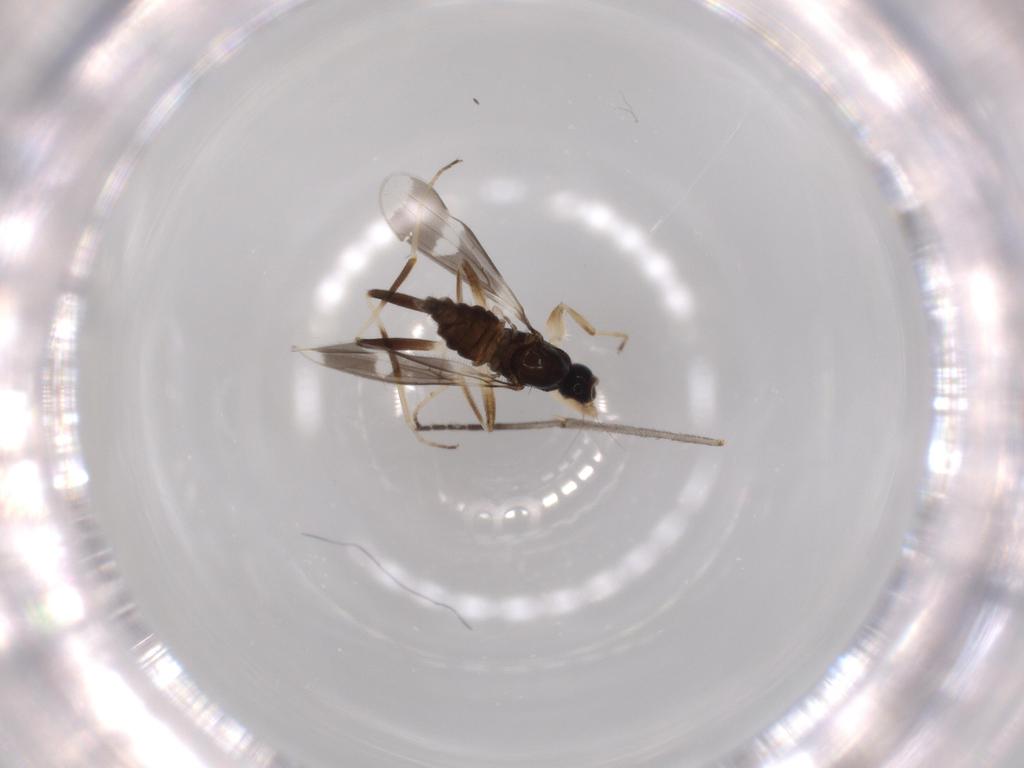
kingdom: Animalia
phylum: Arthropoda
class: Insecta
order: Diptera
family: Hybotidae
